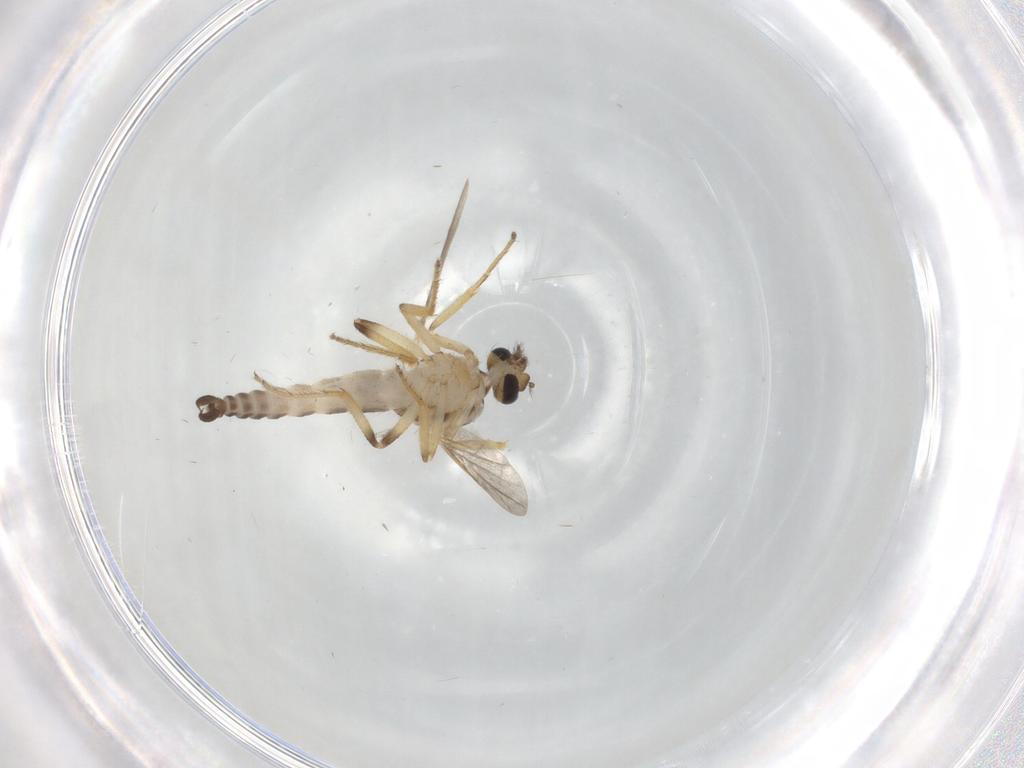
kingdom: Animalia
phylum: Arthropoda
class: Insecta
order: Diptera
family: Ceratopogonidae
